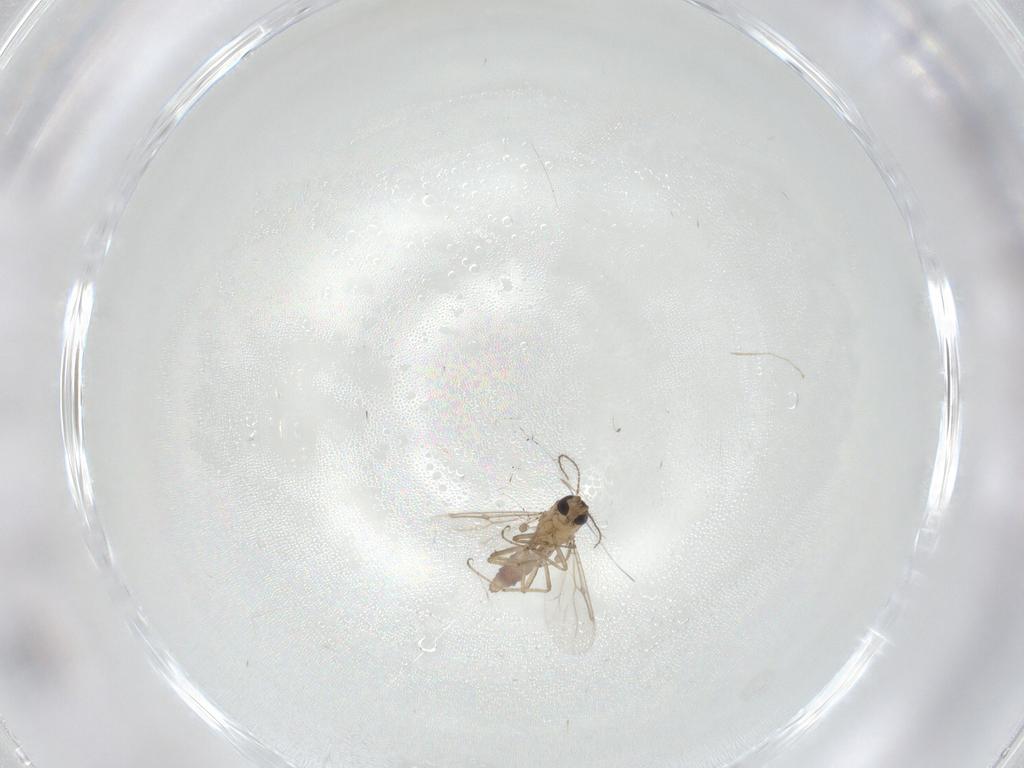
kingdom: Animalia
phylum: Arthropoda
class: Insecta
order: Diptera
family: Ceratopogonidae
